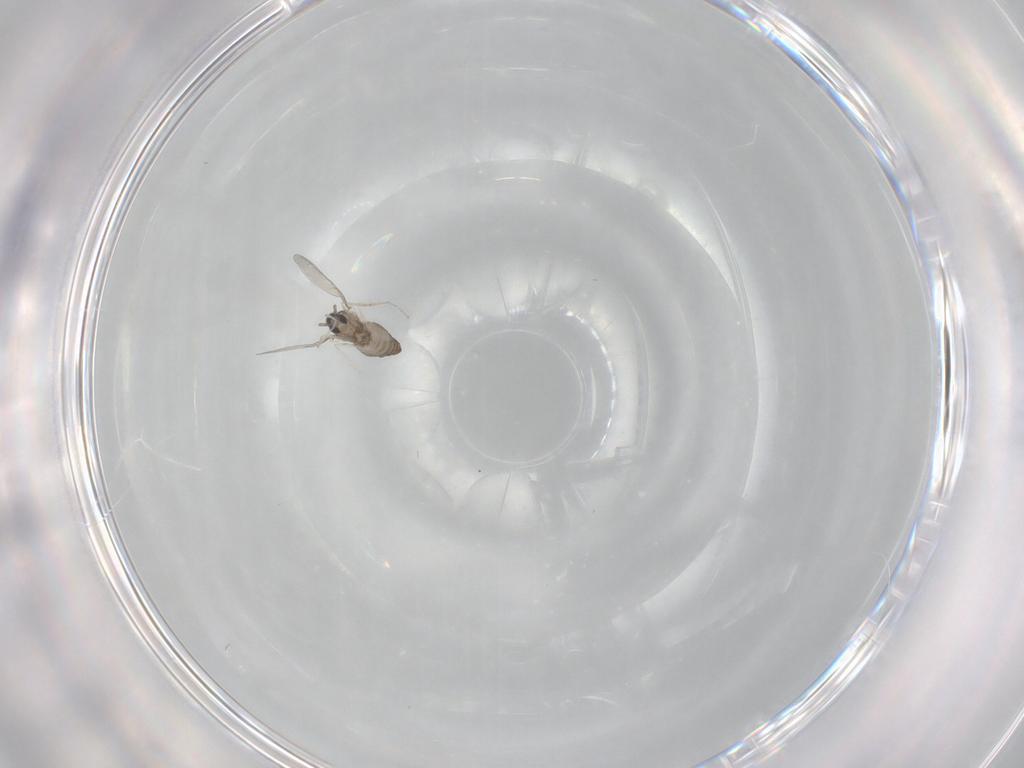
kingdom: Animalia
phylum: Arthropoda
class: Insecta
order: Diptera
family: Cecidomyiidae
